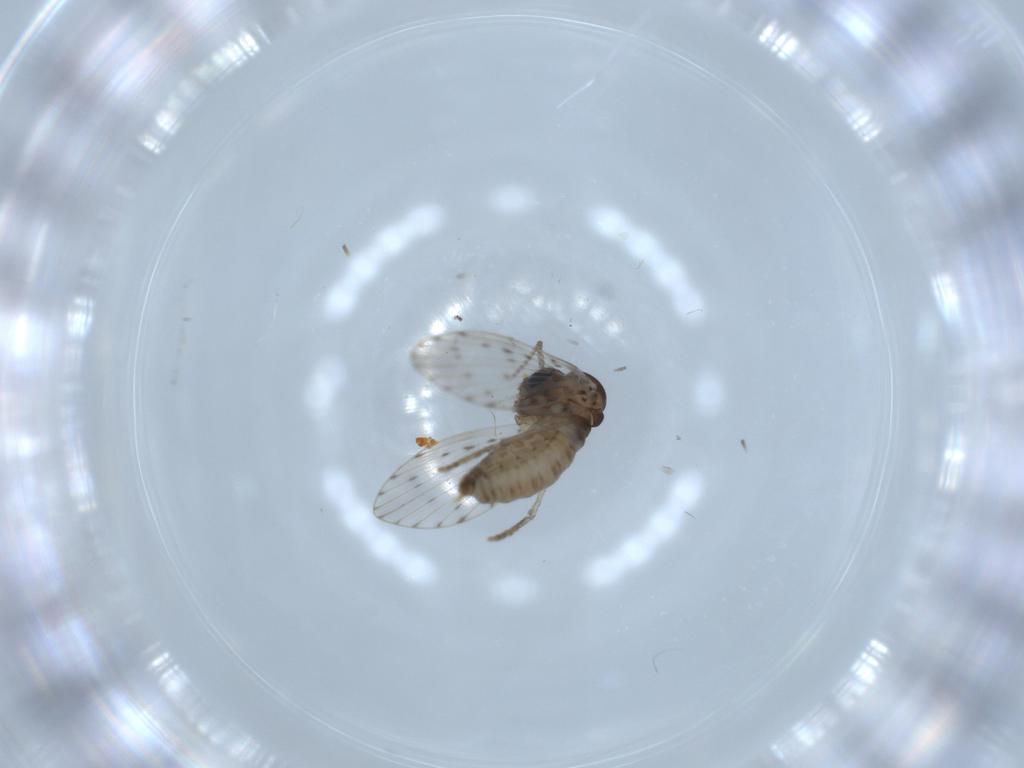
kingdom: Animalia
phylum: Arthropoda
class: Insecta
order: Diptera
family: Psychodidae
